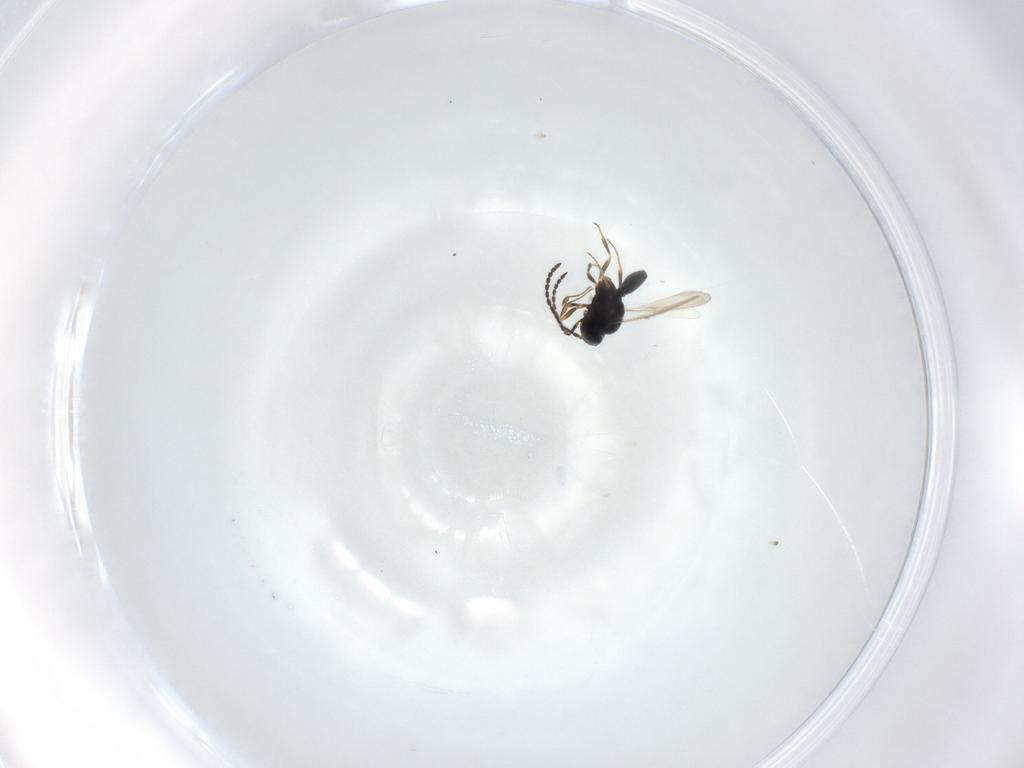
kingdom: Animalia
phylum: Arthropoda
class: Insecta
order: Hymenoptera
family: Scelionidae
